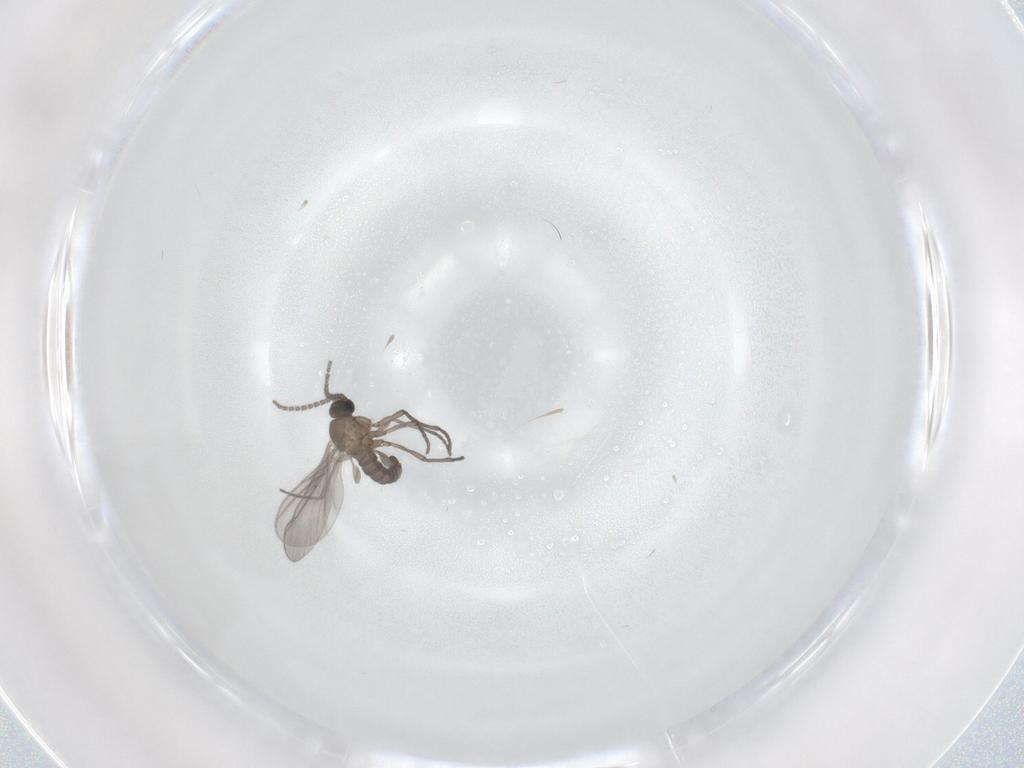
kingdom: Animalia
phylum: Arthropoda
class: Insecta
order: Diptera
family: Sciaridae
